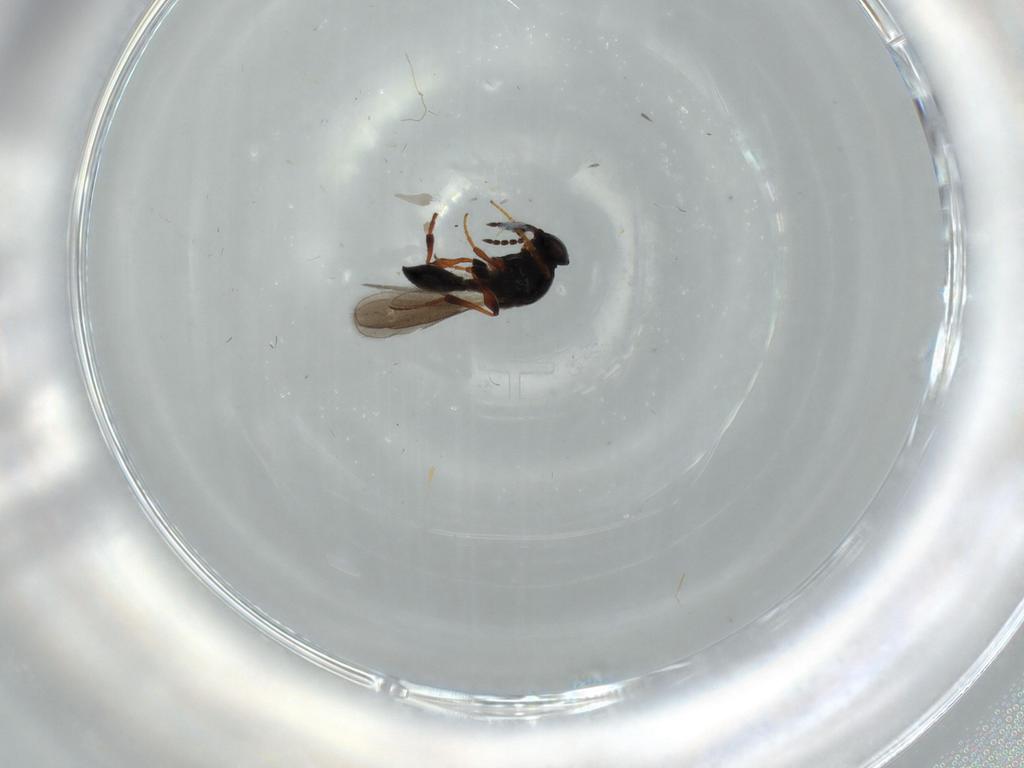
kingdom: Animalia
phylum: Arthropoda
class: Insecta
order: Hymenoptera
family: Platygastridae
